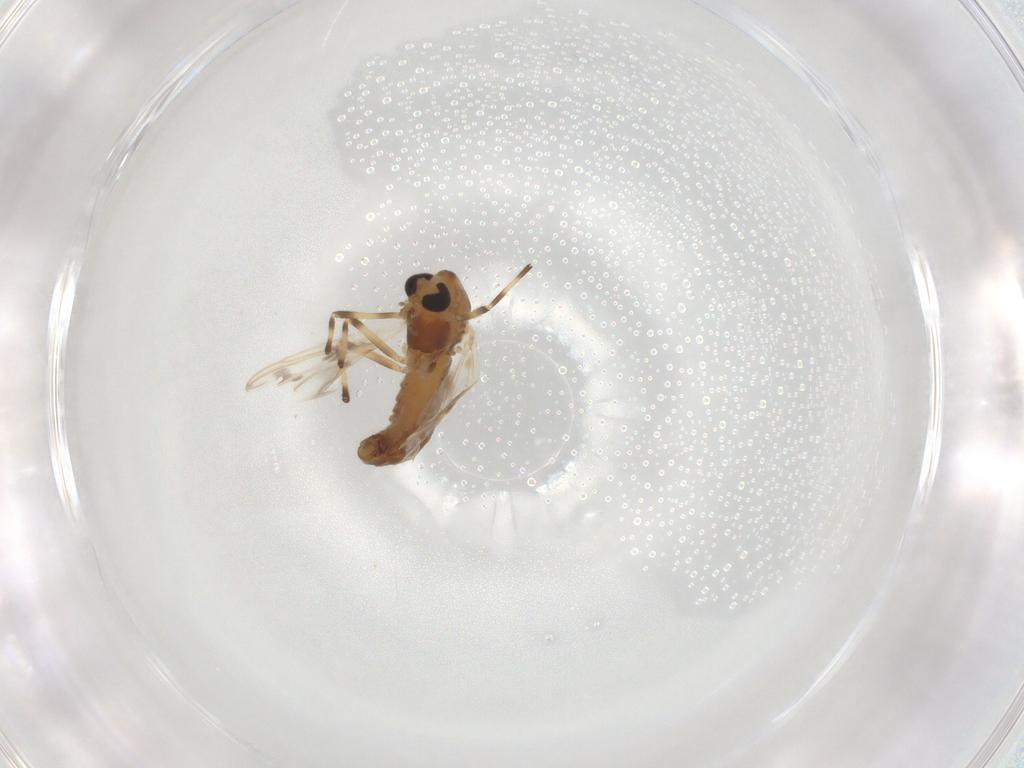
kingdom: Animalia
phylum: Arthropoda
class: Insecta
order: Diptera
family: Chironomidae
